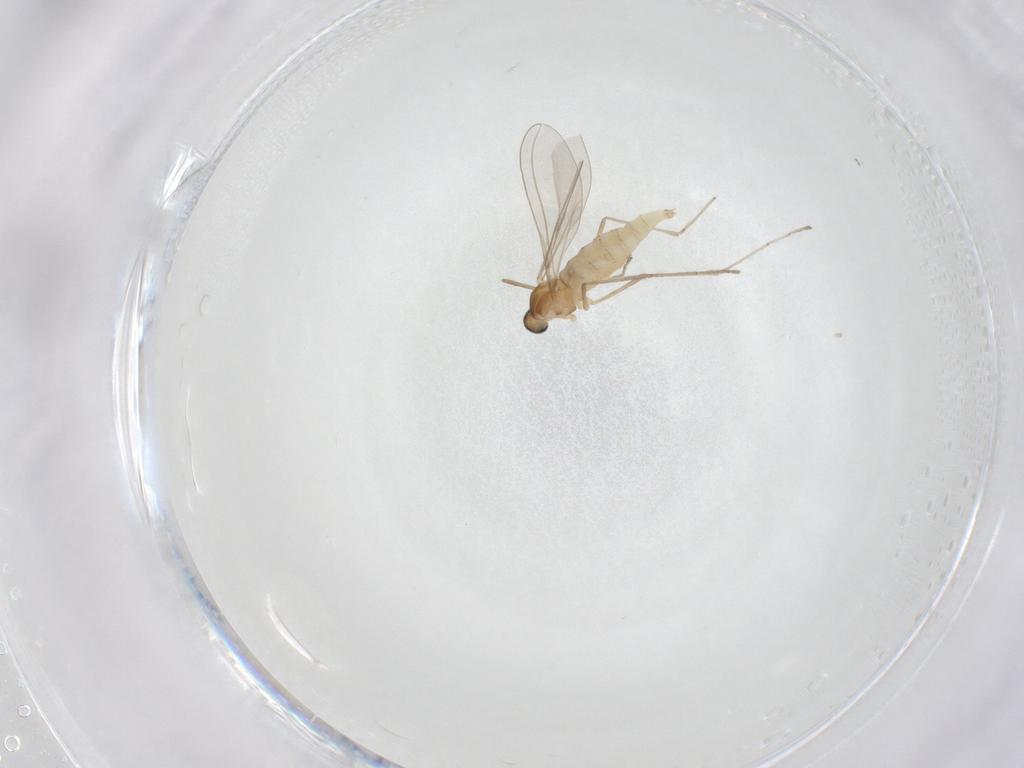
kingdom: Animalia
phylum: Arthropoda
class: Insecta
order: Diptera
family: Cecidomyiidae
